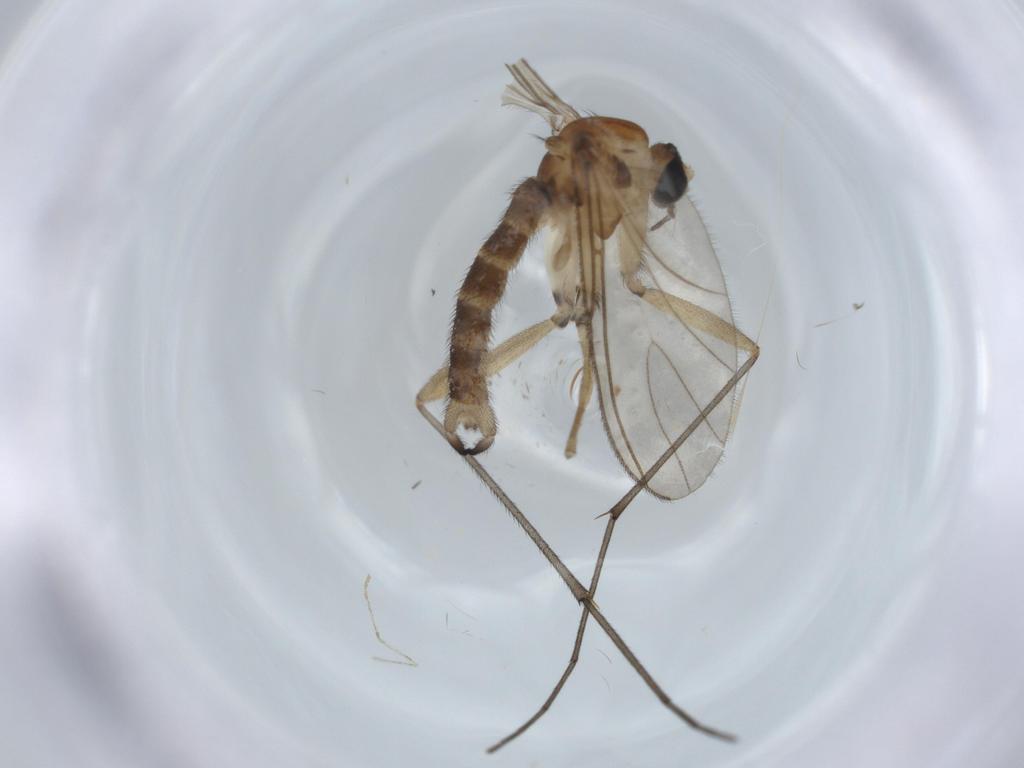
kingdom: Animalia
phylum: Arthropoda
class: Insecta
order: Diptera
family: Sciaridae
